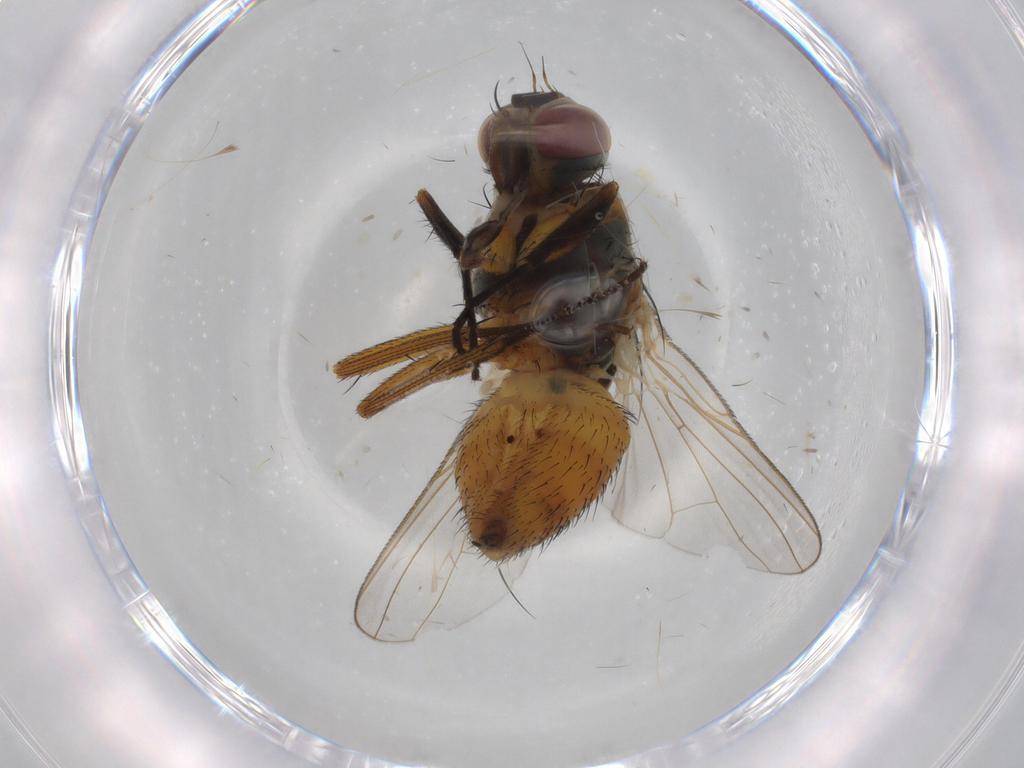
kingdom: Animalia
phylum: Arthropoda
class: Insecta
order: Diptera
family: Muscidae
